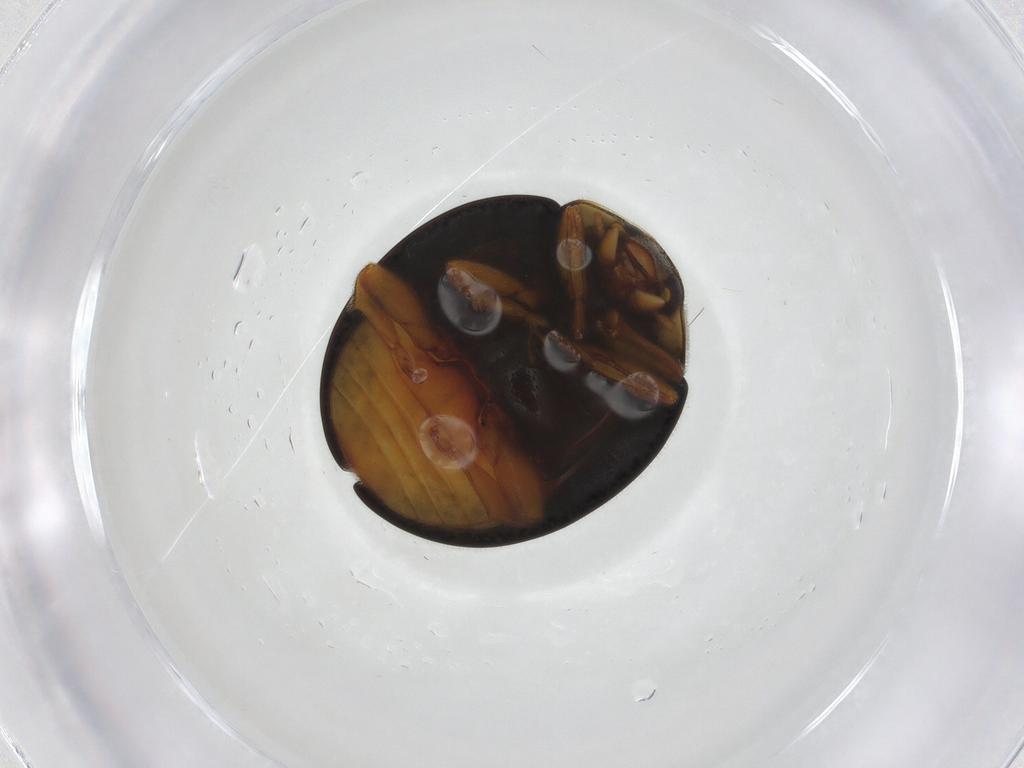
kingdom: Animalia
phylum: Arthropoda
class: Insecta
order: Coleoptera
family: Coccinellidae
